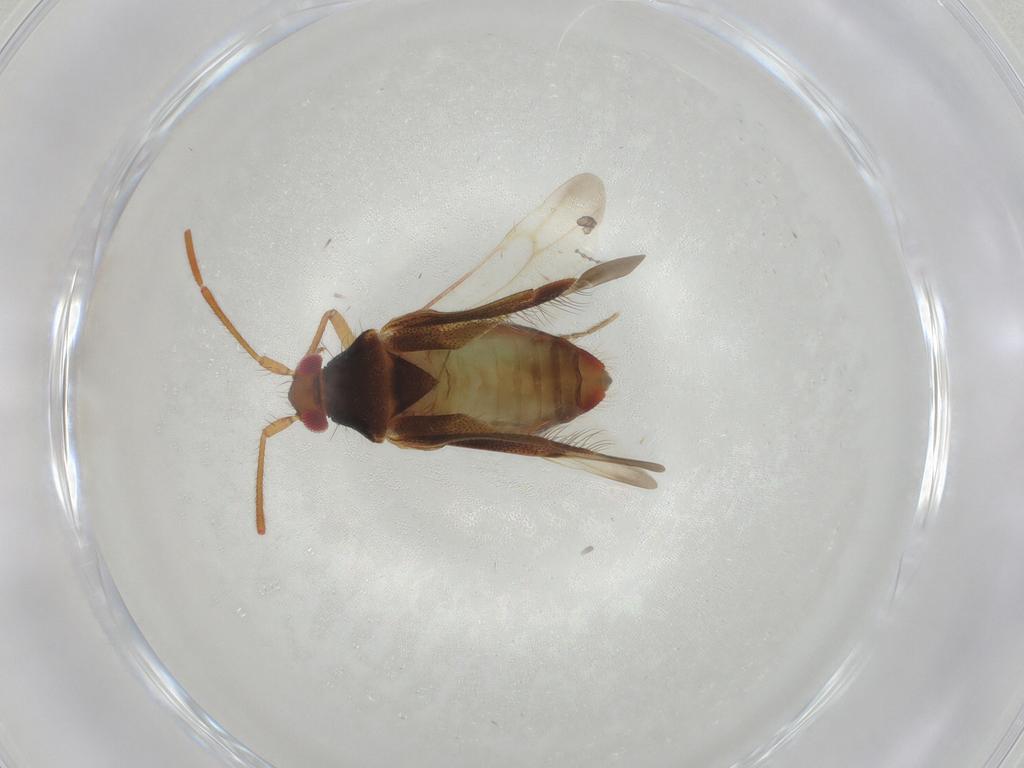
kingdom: Animalia
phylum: Arthropoda
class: Insecta
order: Hemiptera
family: Miridae
